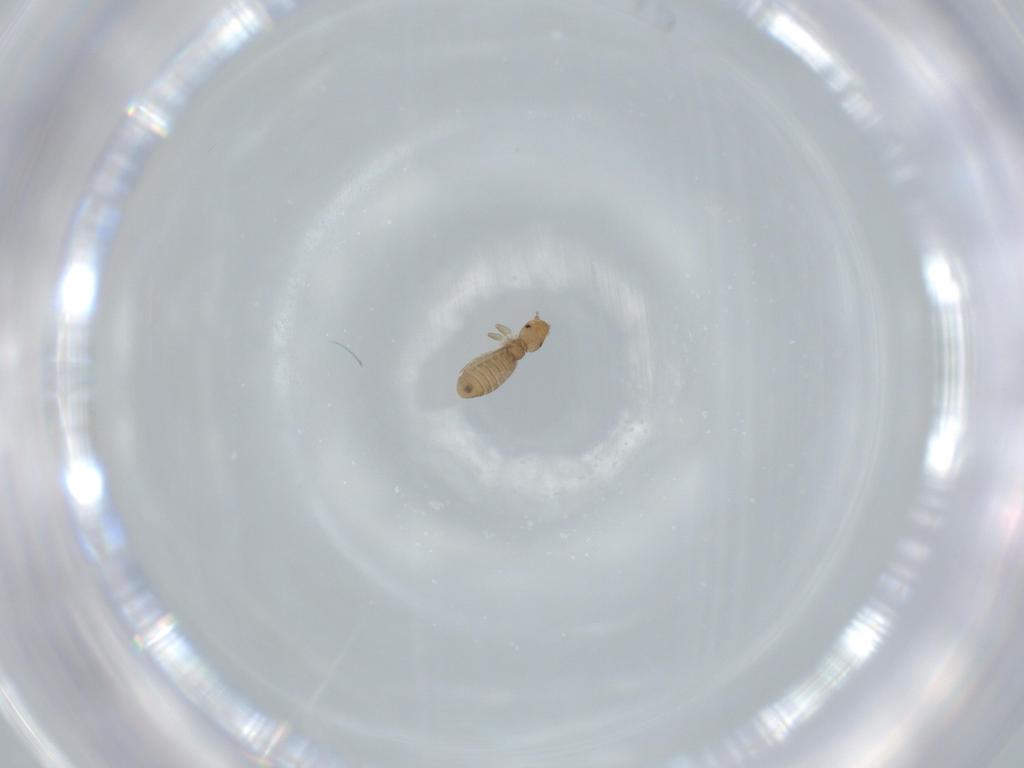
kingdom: Animalia
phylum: Arthropoda
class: Insecta
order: Psocodea
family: Liposcelididae
